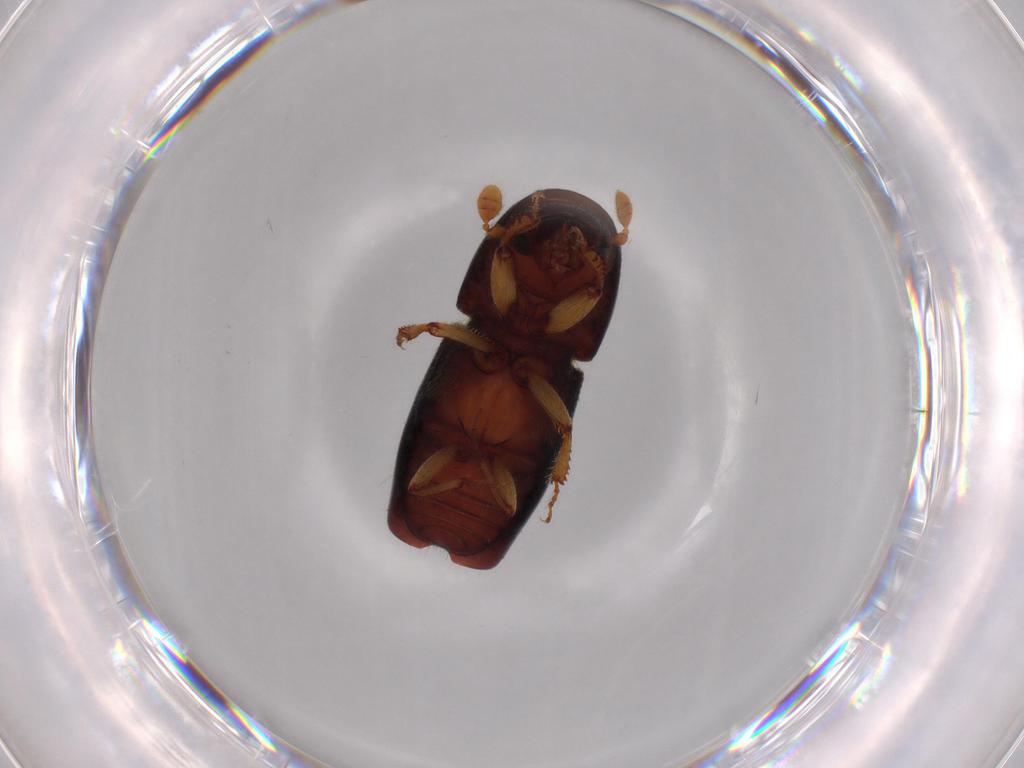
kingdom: Animalia
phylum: Arthropoda
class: Insecta
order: Coleoptera
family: Curculionidae
